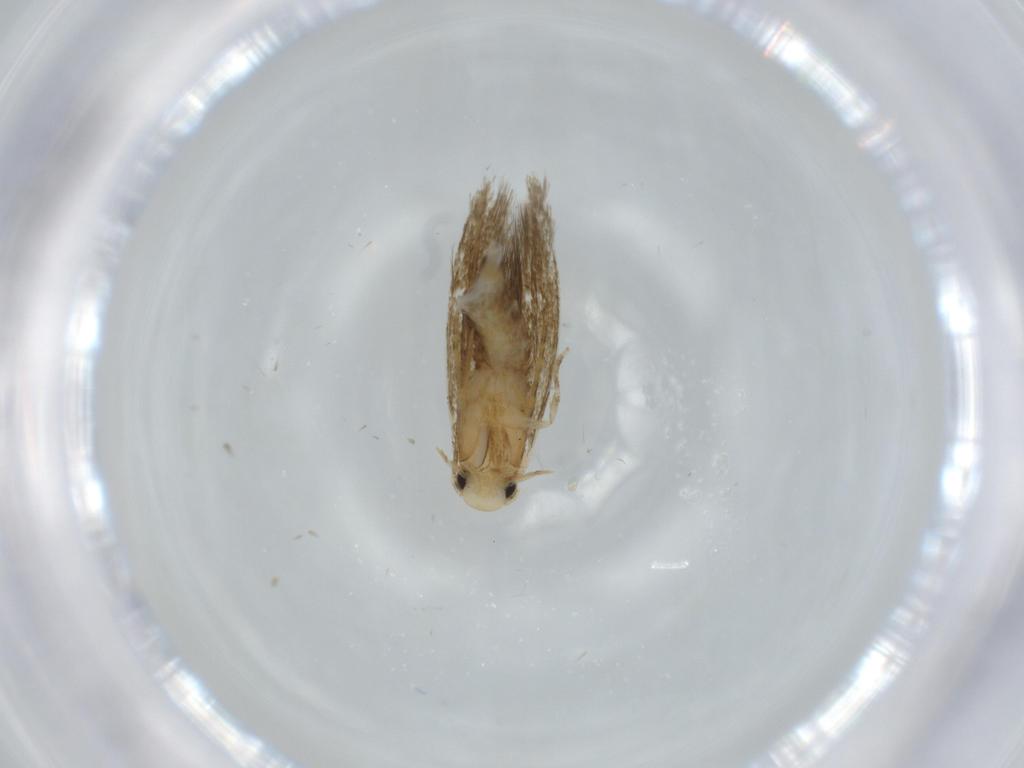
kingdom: Animalia
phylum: Arthropoda
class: Insecta
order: Lepidoptera
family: Tineidae
